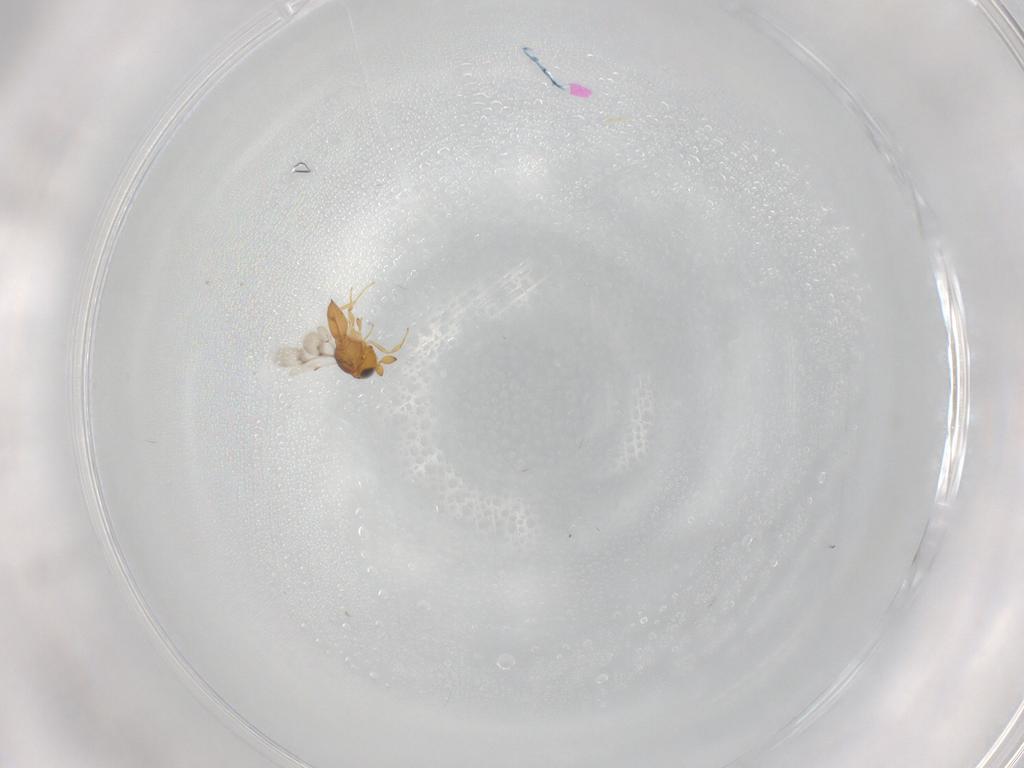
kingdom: Animalia
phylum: Arthropoda
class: Insecta
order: Hymenoptera
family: Scelionidae
